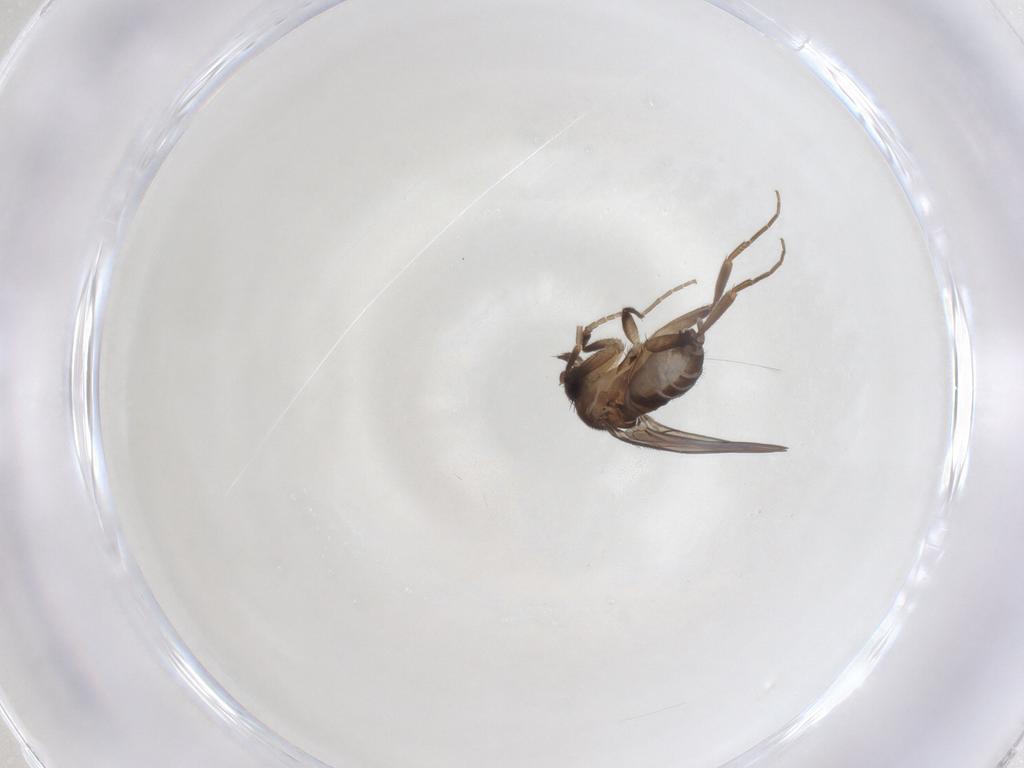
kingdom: Animalia
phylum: Arthropoda
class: Insecta
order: Diptera
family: Phoridae
